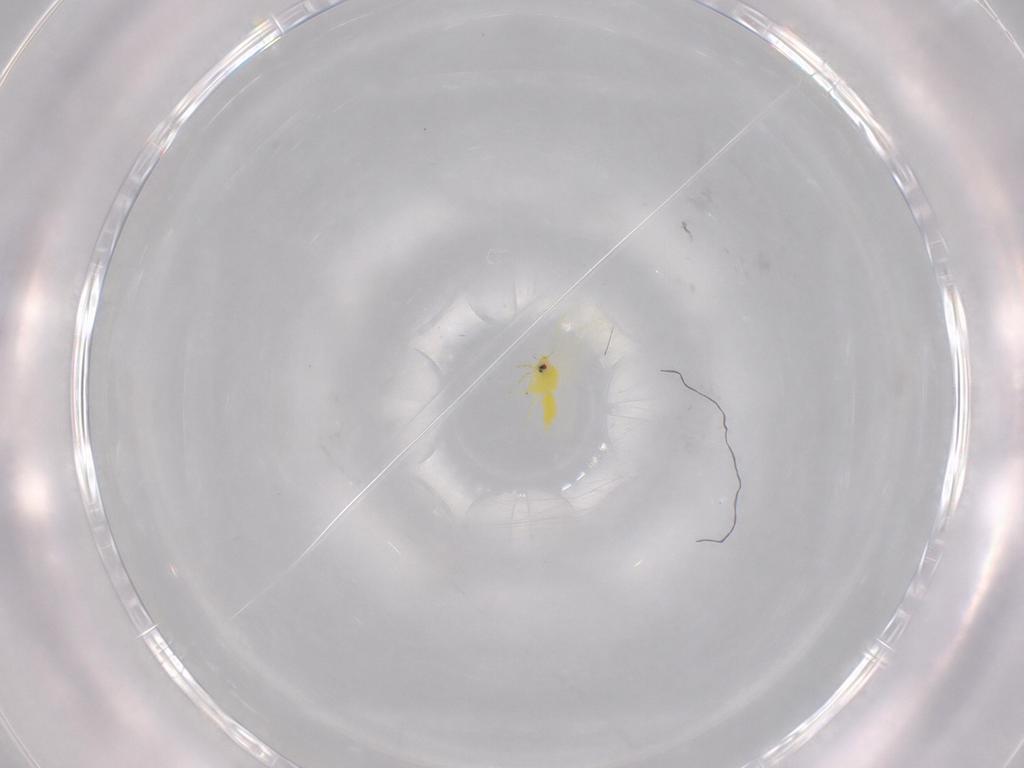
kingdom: Animalia
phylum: Arthropoda
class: Insecta
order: Hemiptera
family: Aleyrodidae
